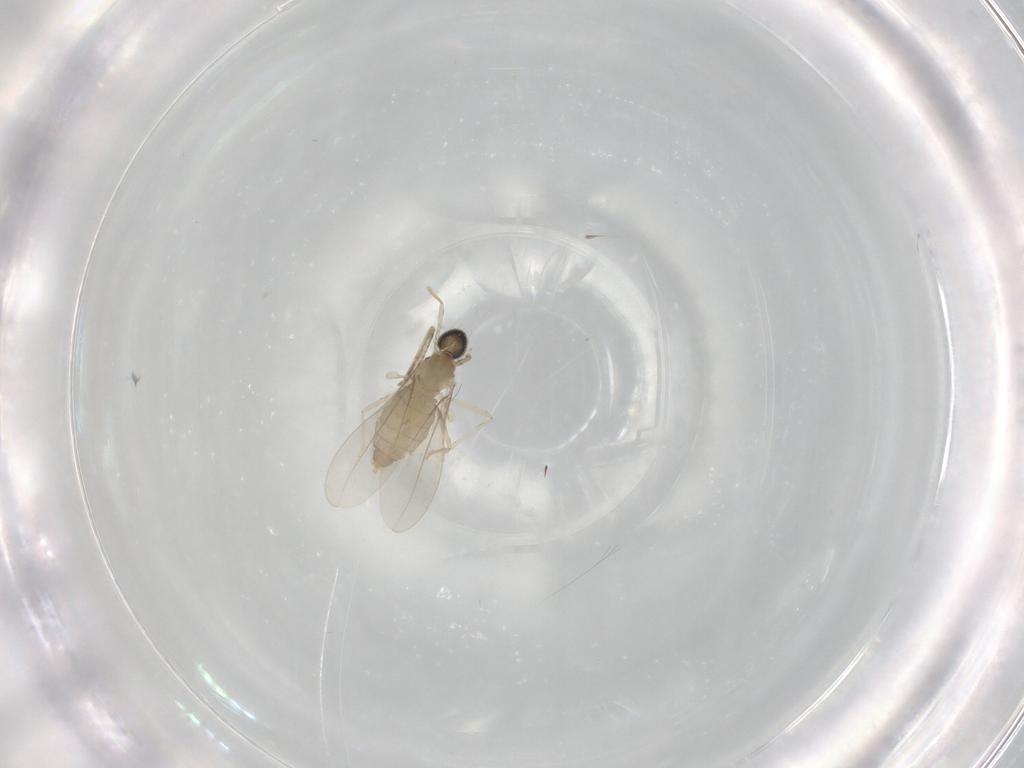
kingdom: Animalia
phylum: Arthropoda
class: Insecta
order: Diptera
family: Cecidomyiidae
